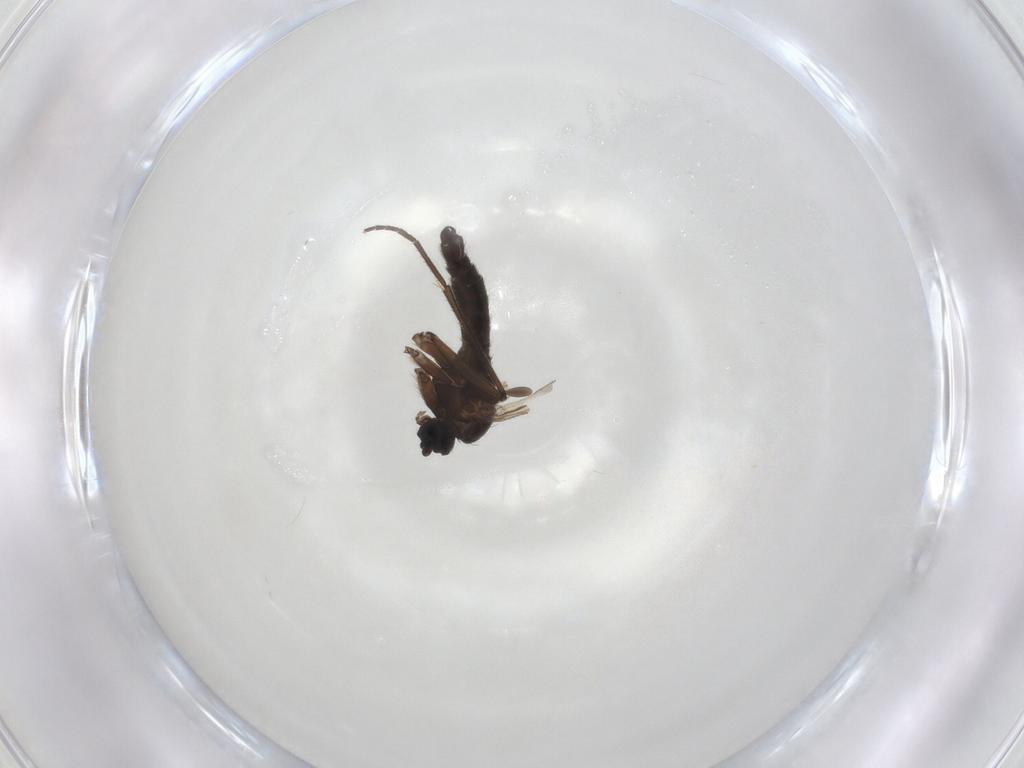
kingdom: Animalia
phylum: Arthropoda
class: Insecta
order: Diptera
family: Sciaridae
